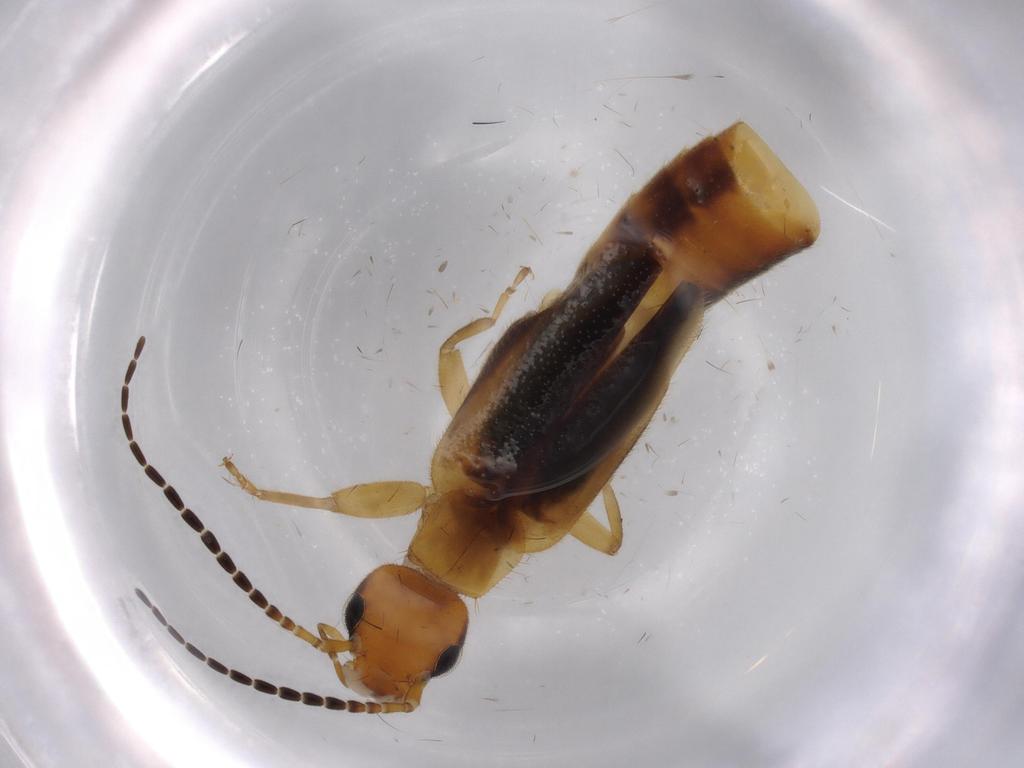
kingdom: Animalia
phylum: Arthropoda
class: Insecta
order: Dermaptera
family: Forficulidae
